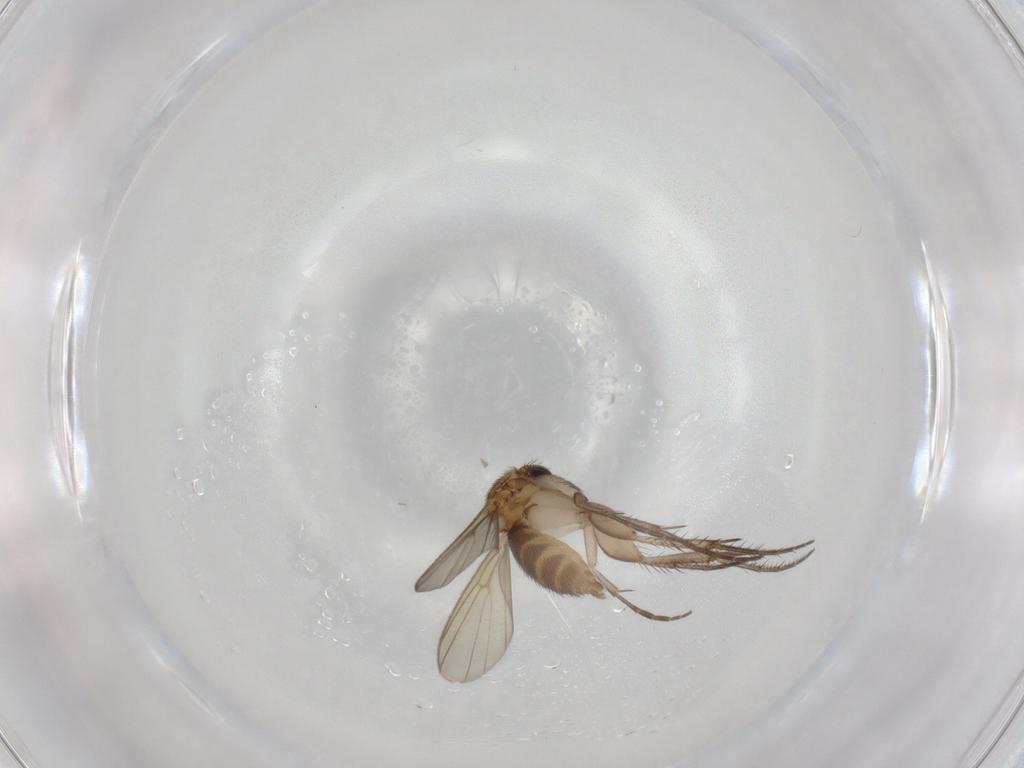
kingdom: Animalia
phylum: Arthropoda
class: Insecta
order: Diptera
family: Mycetophilidae
